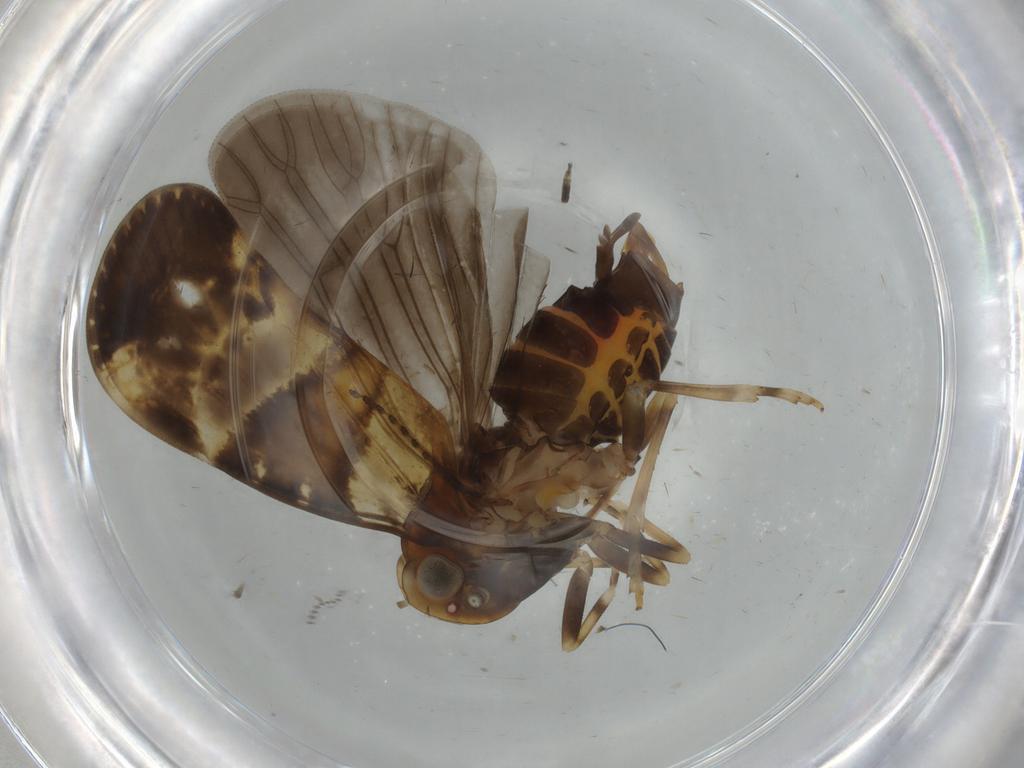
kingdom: Animalia
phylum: Arthropoda
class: Insecta
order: Hemiptera
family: Cixiidae
